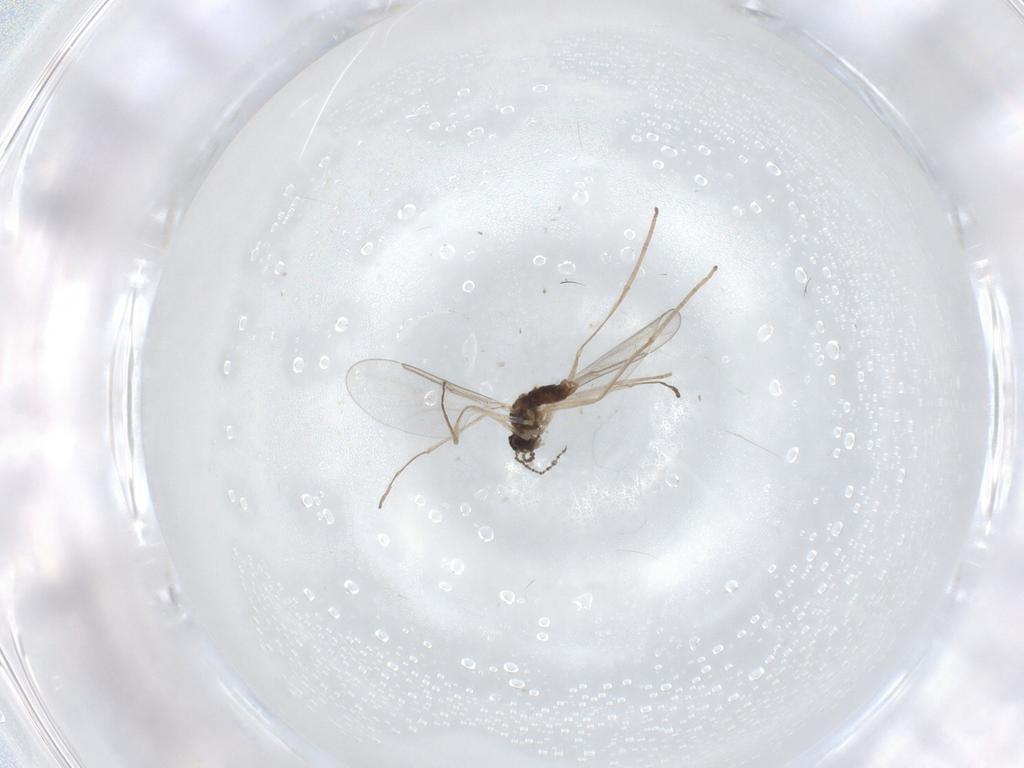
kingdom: Animalia
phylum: Arthropoda
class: Insecta
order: Diptera
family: Cecidomyiidae
